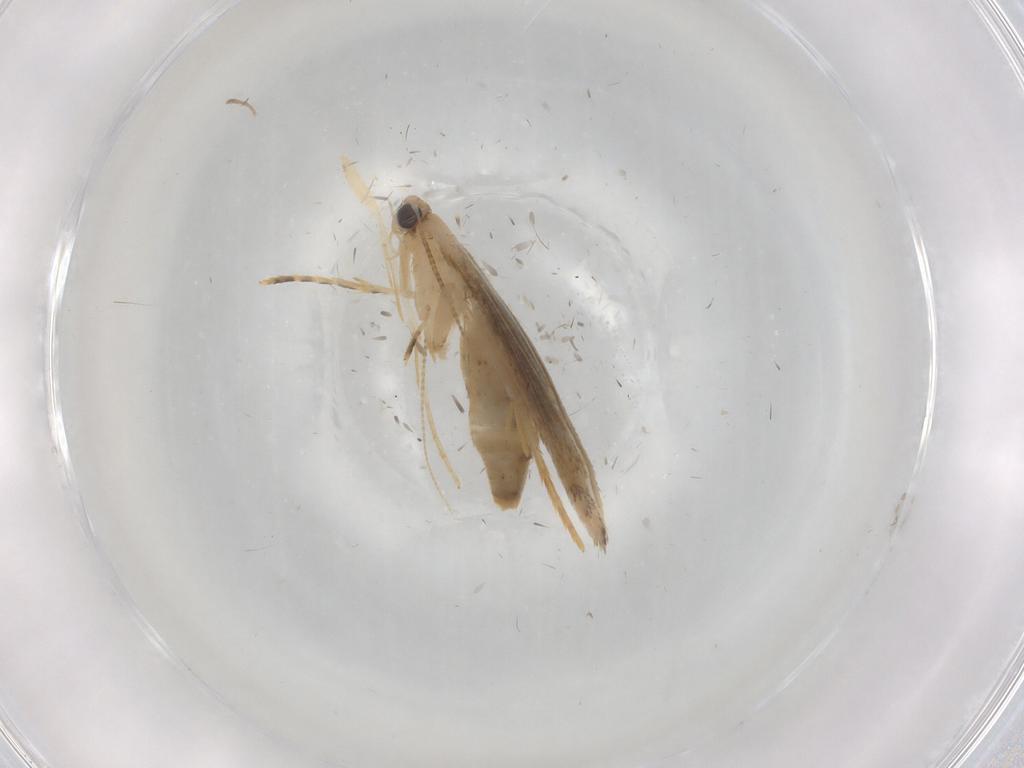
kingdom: Animalia
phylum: Arthropoda
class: Insecta
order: Lepidoptera
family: Tineidae
